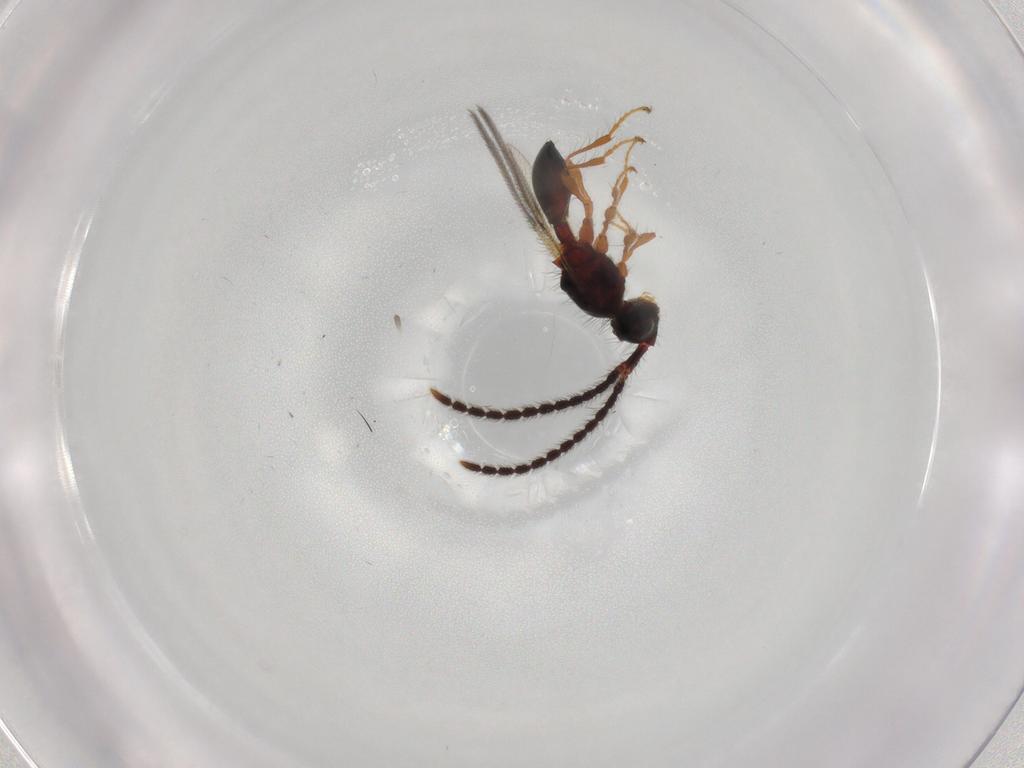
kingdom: Animalia
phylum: Arthropoda
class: Insecta
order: Hymenoptera
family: Diapriidae
